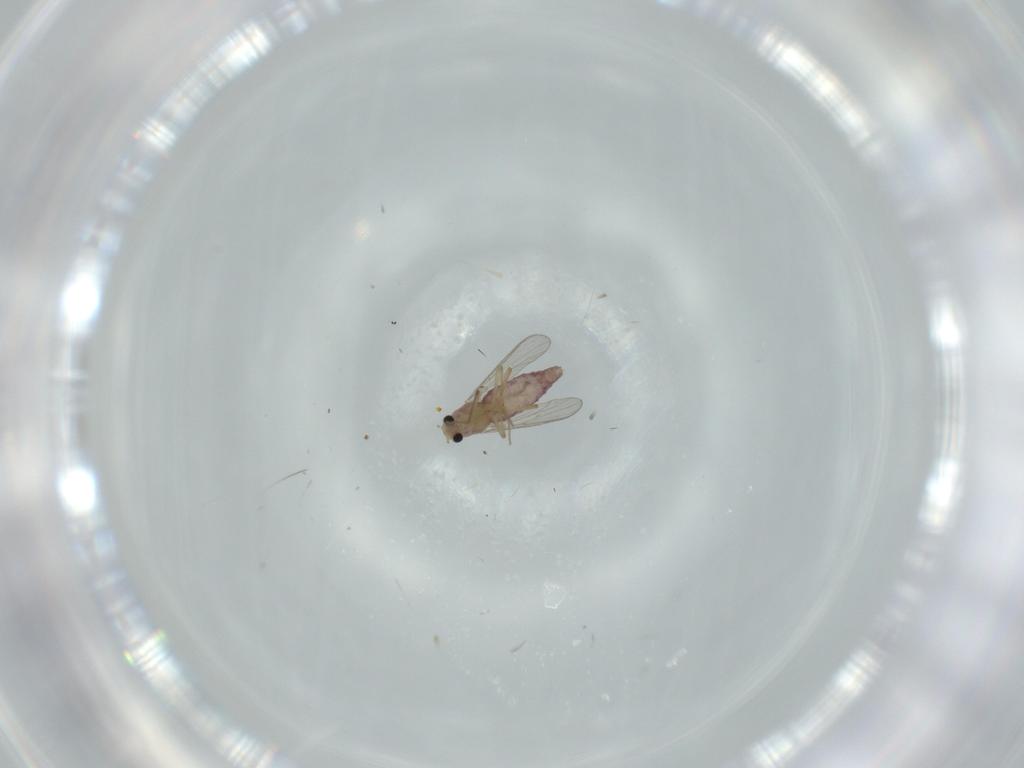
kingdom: Animalia
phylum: Arthropoda
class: Insecta
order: Diptera
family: Chironomidae
